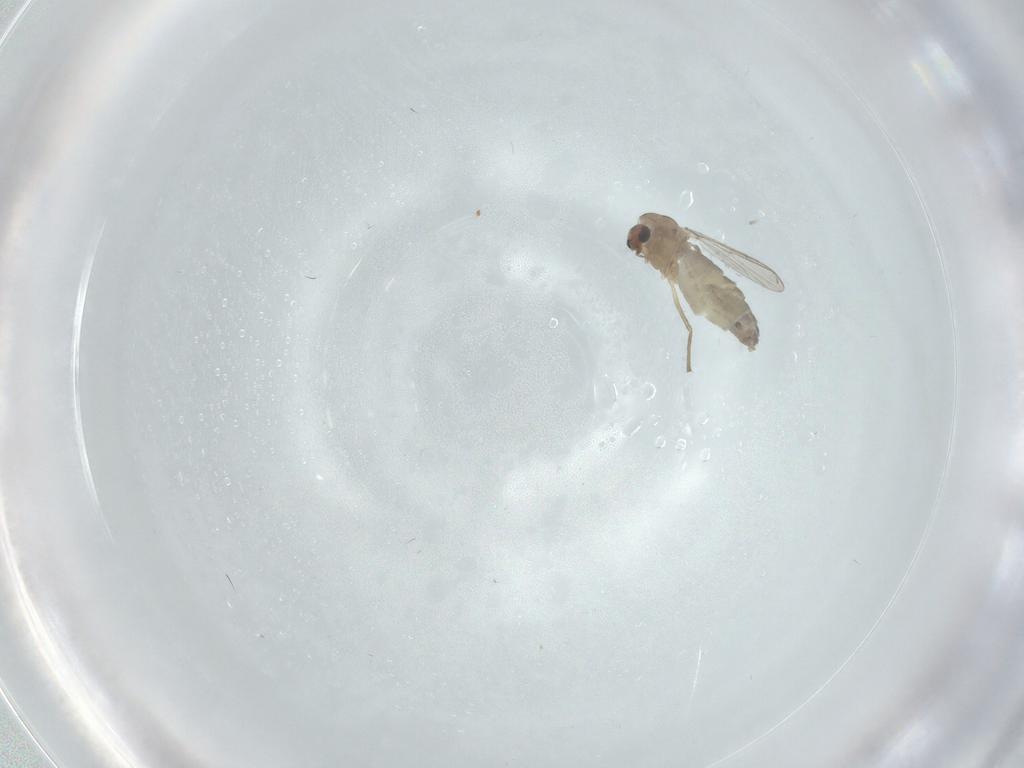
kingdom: Animalia
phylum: Arthropoda
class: Insecta
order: Diptera
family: Chironomidae
